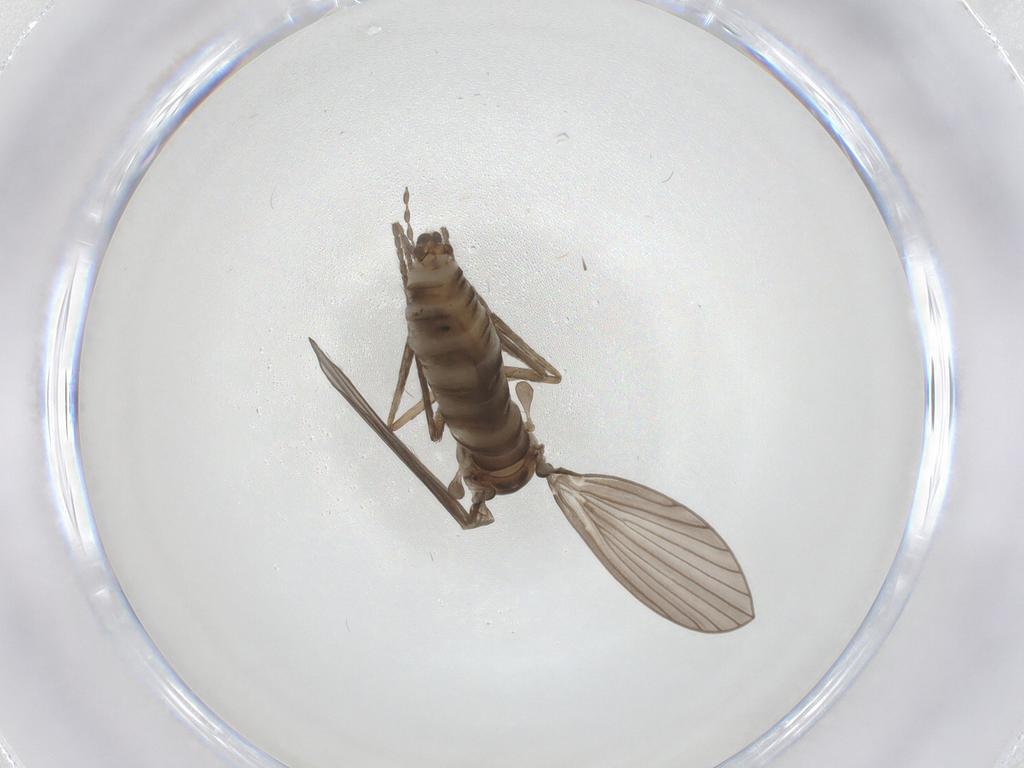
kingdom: Animalia
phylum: Arthropoda
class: Insecta
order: Diptera
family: Psychodidae
